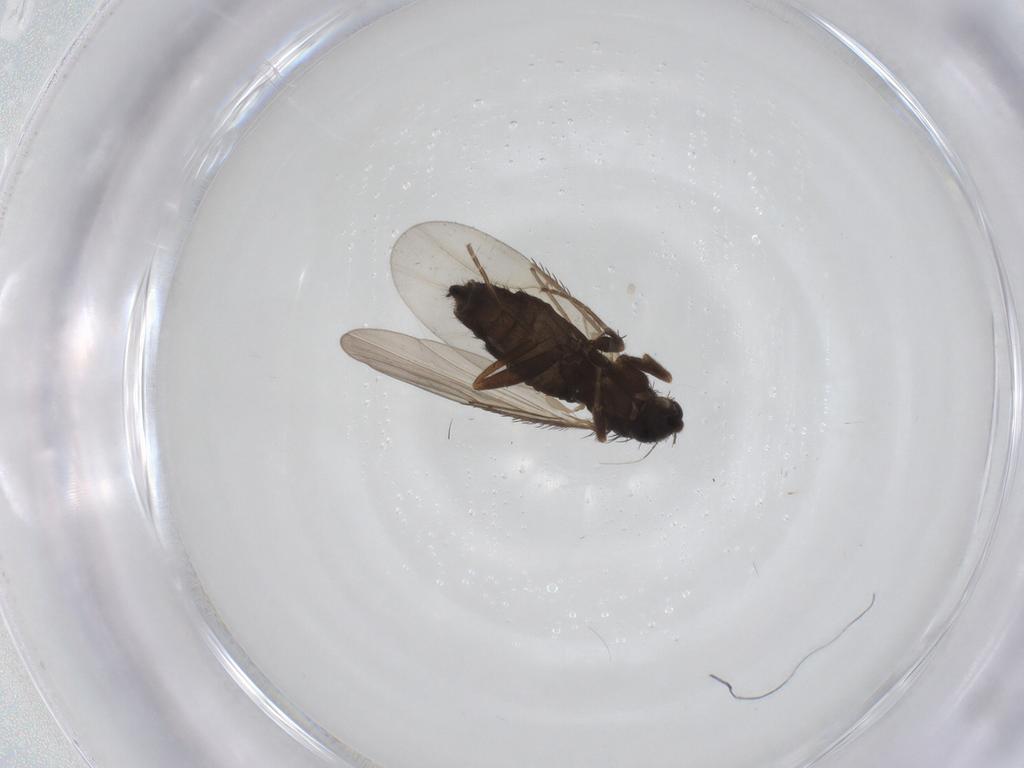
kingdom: Animalia
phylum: Arthropoda
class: Insecta
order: Diptera
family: Phoridae
